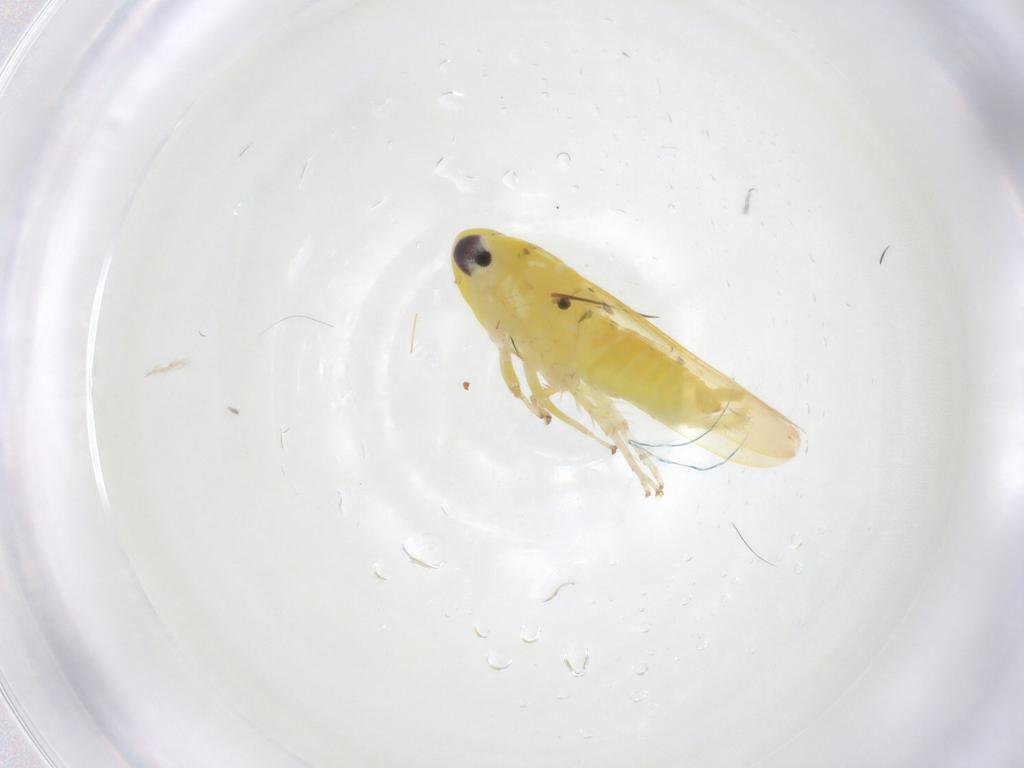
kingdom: Animalia
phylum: Arthropoda
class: Insecta
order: Hemiptera
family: Cicadellidae
